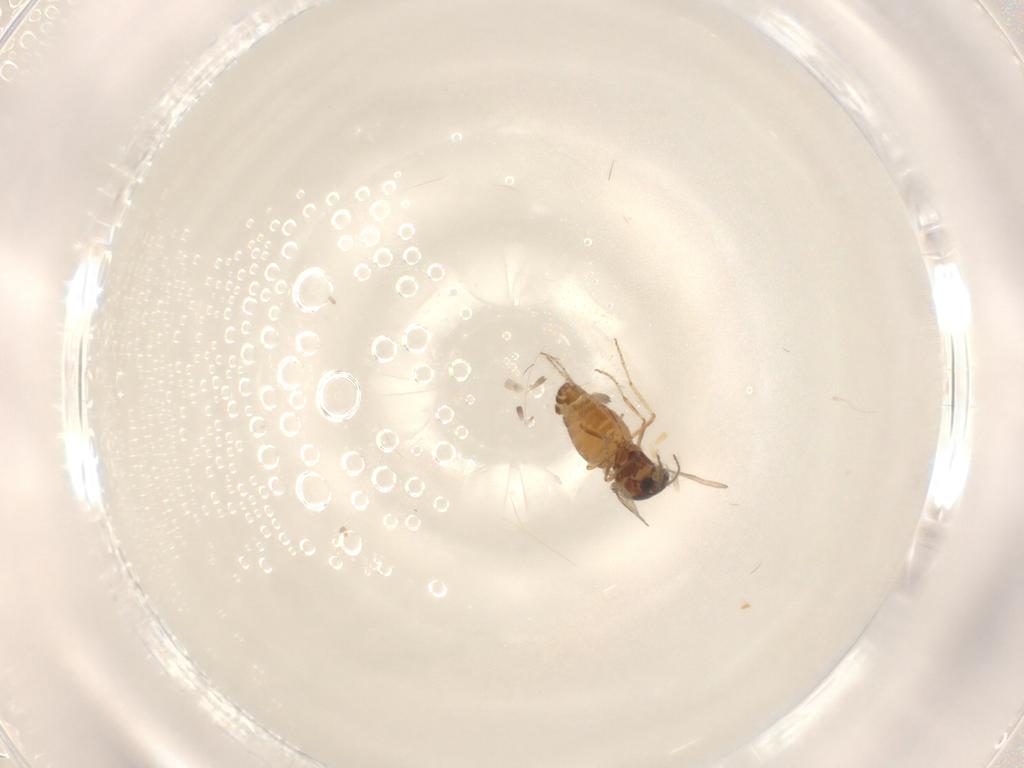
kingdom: Animalia
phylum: Arthropoda
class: Insecta
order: Diptera
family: Ceratopogonidae
